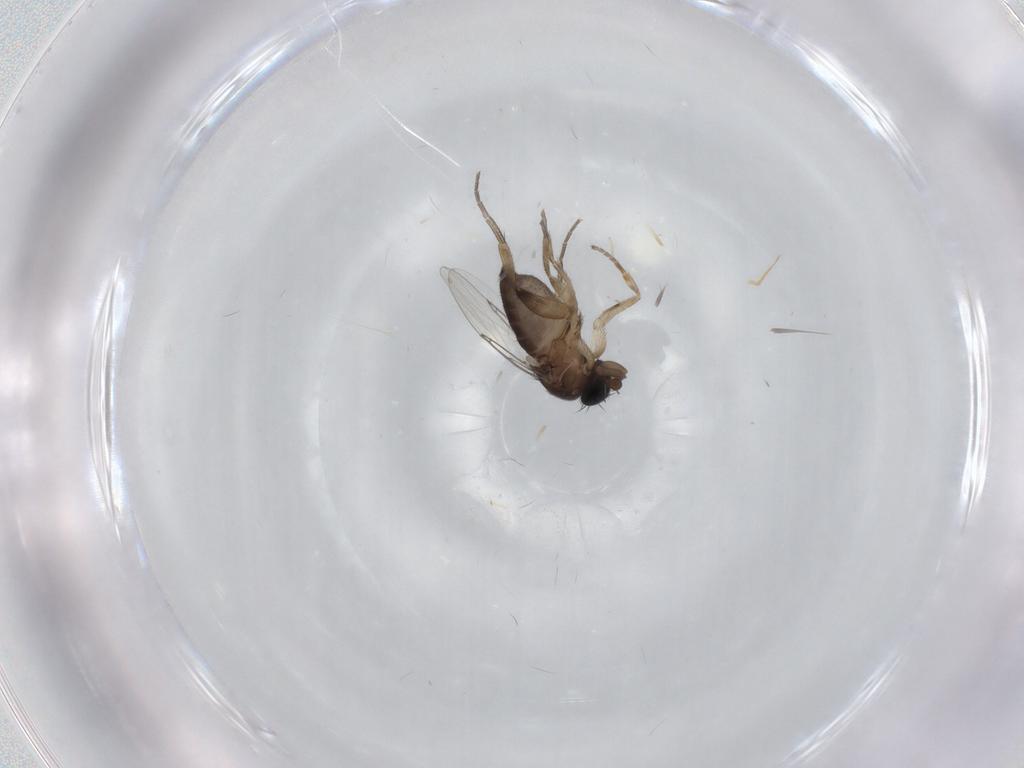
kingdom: Animalia
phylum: Arthropoda
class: Insecta
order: Diptera
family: Phoridae
